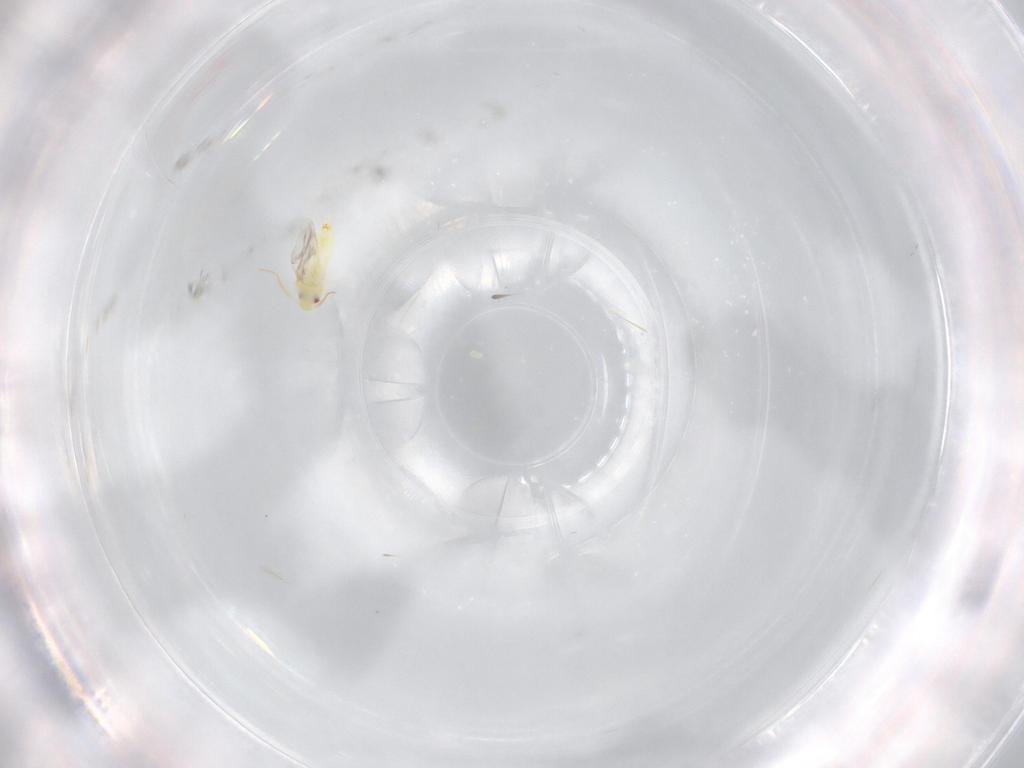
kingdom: Animalia
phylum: Arthropoda
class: Insecta
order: Hemiptera
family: Aleyrodidae
